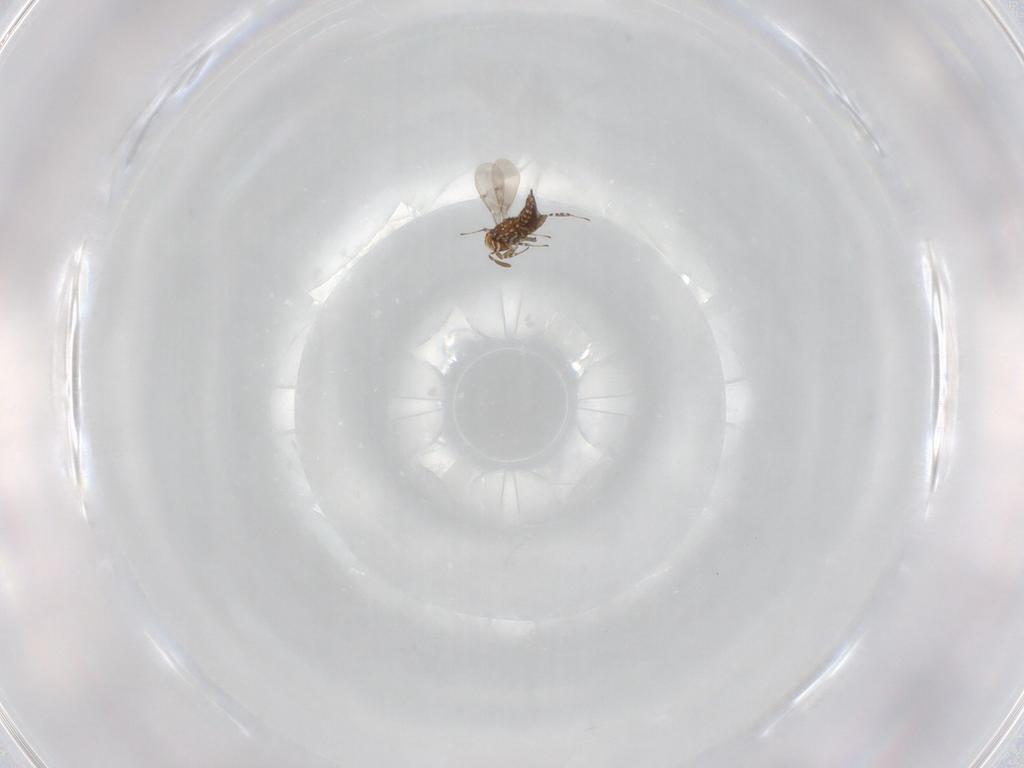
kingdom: Animalia
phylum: Arthropoda
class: Insecta
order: Hymenoptera
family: Aphelinidae
